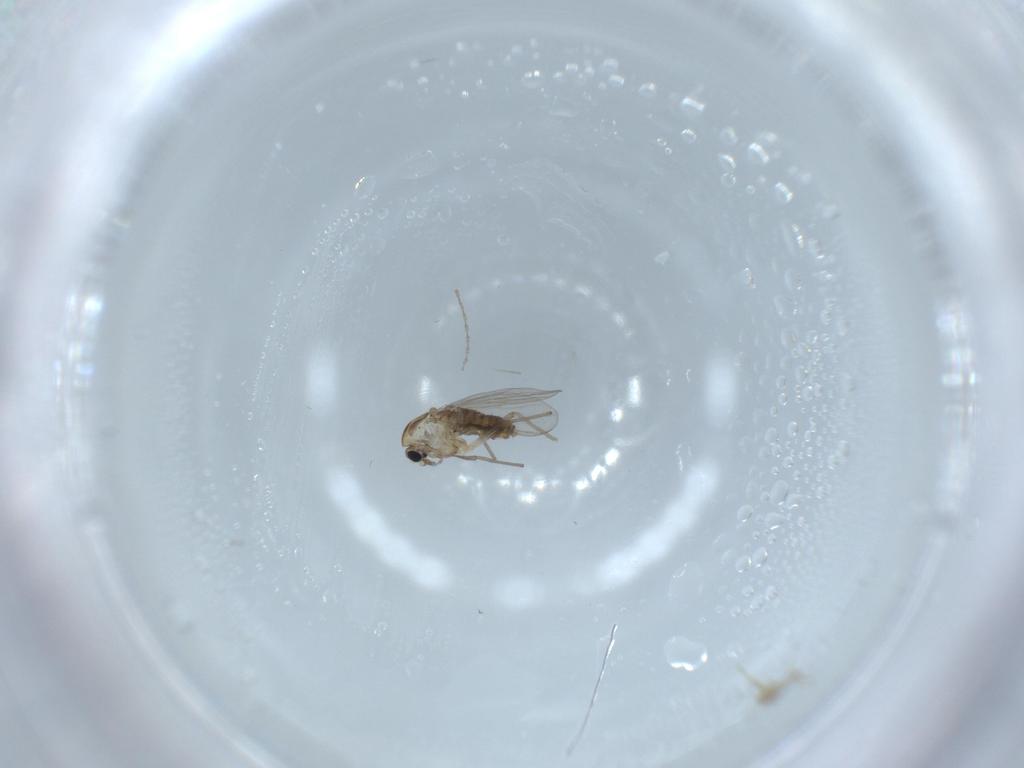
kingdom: Animalia
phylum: Arthropoda
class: Insecta
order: Diptera
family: Chironomidae
